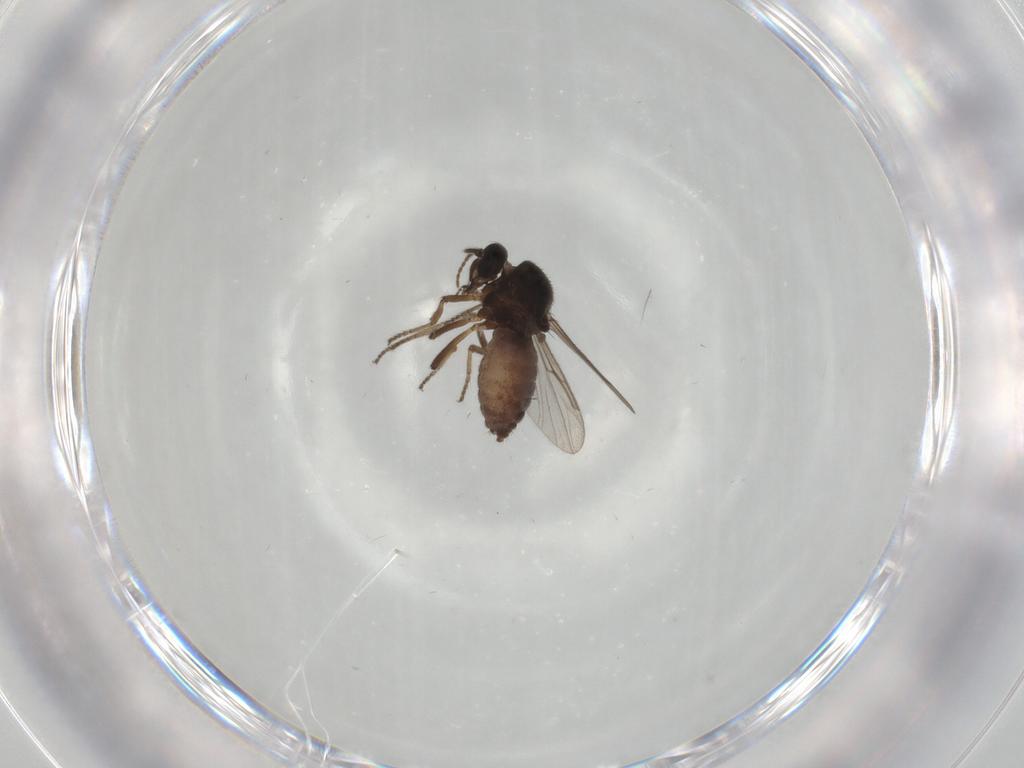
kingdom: Animalia
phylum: Arthropoda
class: Insecta
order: Diptera
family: Ceratopogonidae
